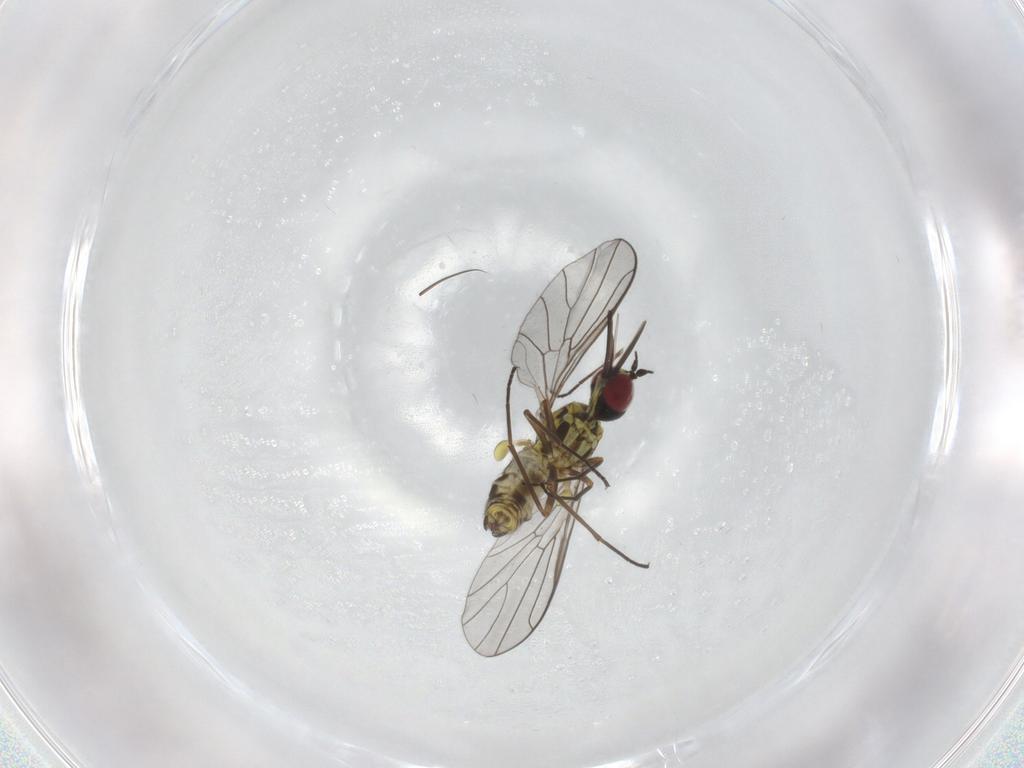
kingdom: Animalia
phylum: Arthropoda
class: Insecta
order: Diptera
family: Bombyliidae
